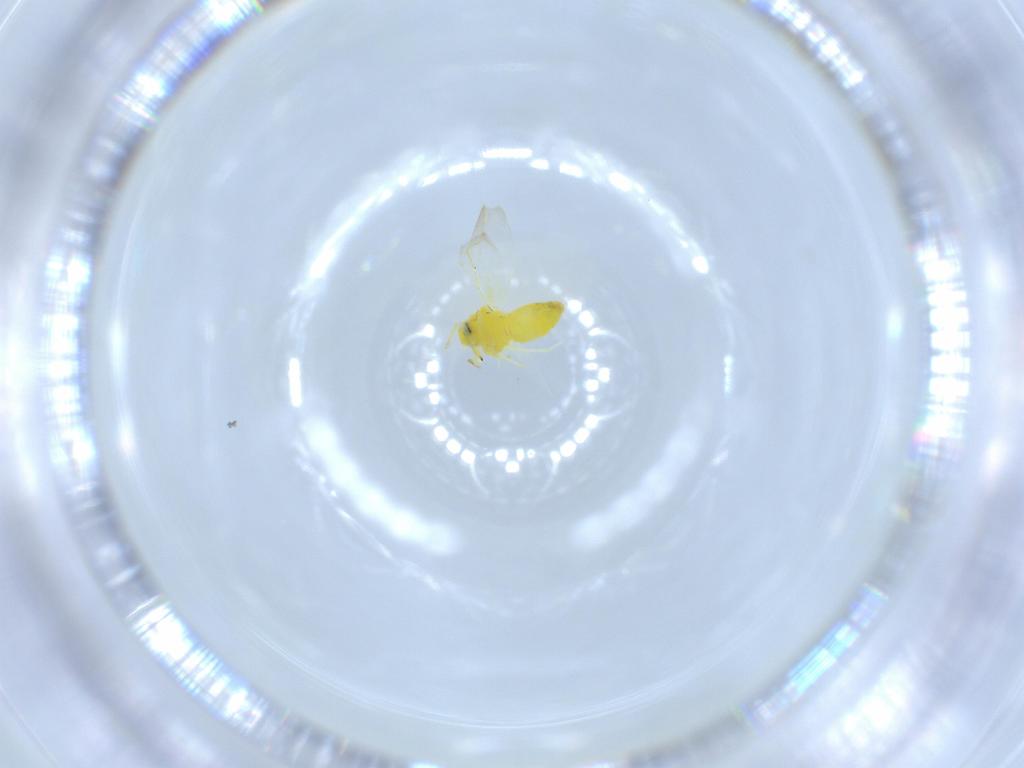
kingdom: Animalia
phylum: Arthropoda
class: Insecta
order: Hemiptera
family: Aleyrodidae
